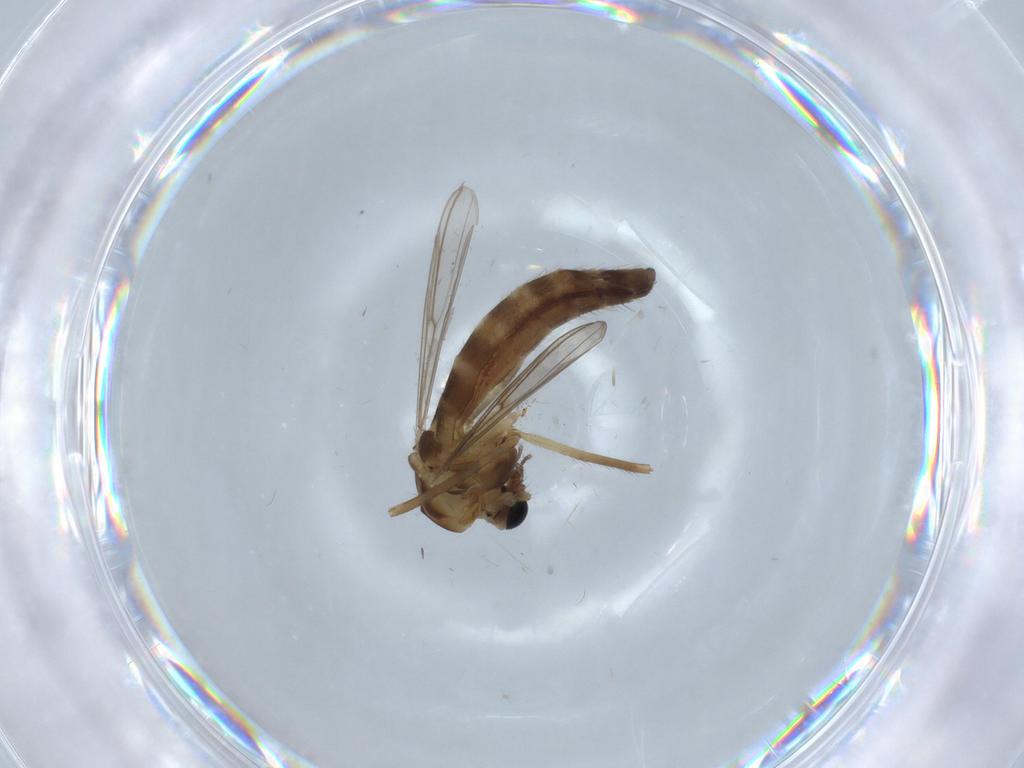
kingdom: Animalia
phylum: Arthropoda
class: Insecta
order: Diptera
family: Chironomidae
